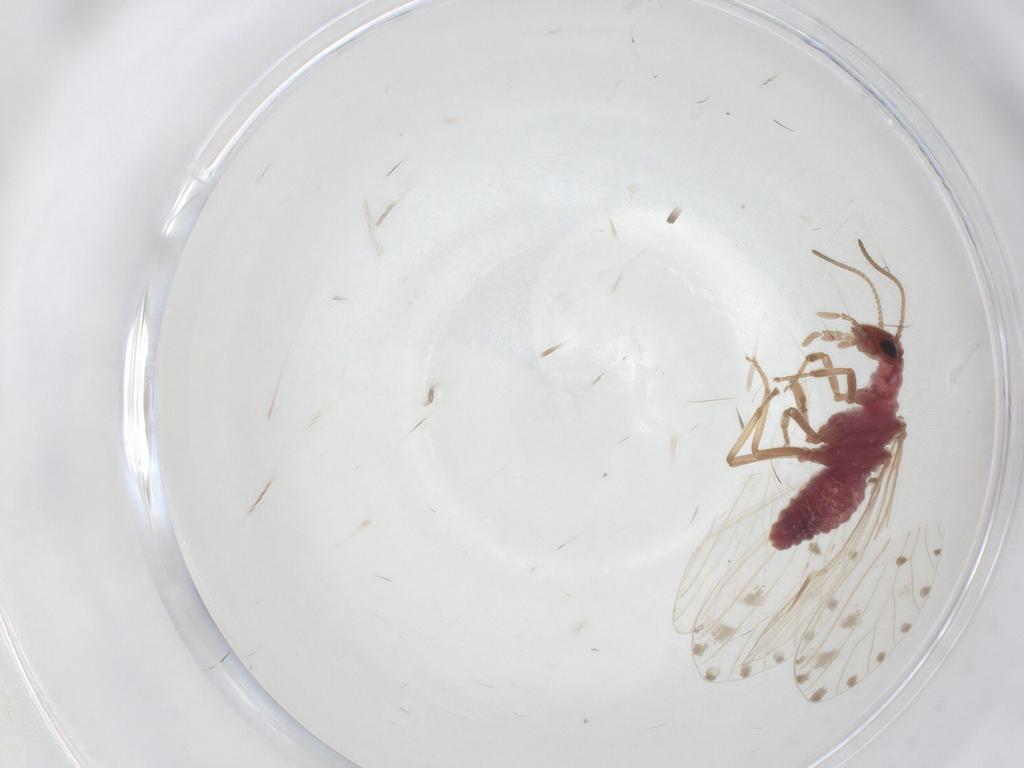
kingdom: Animalia
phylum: Arthropoda
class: Insecta
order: Neuroptera
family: Coniopterygidae
